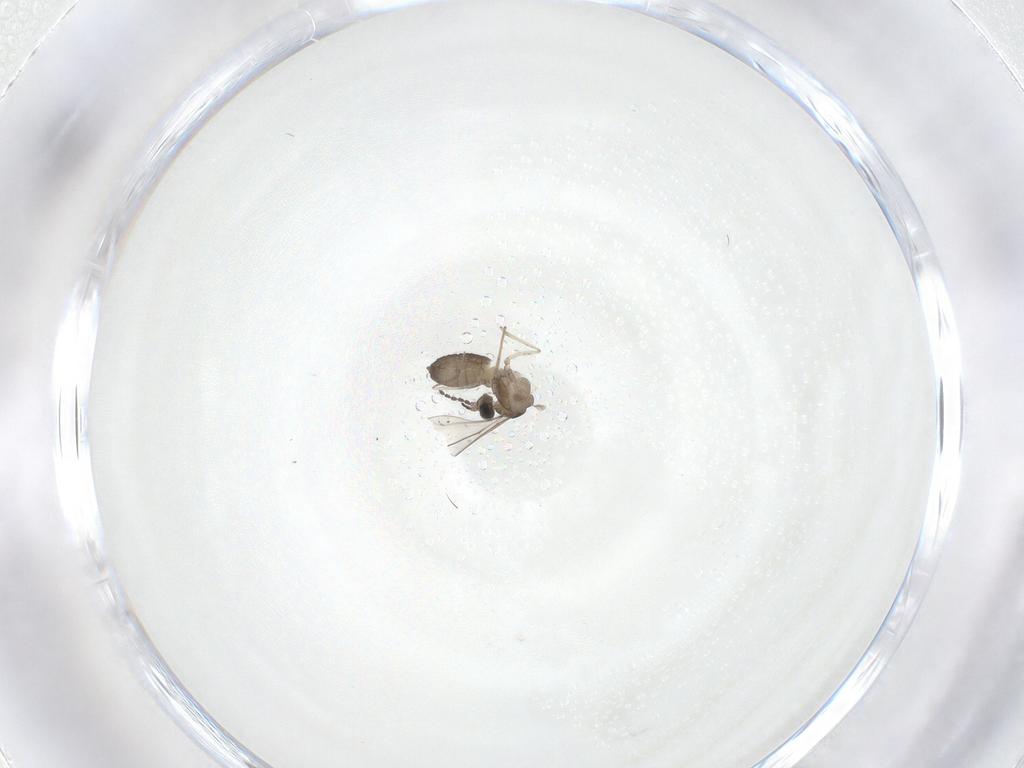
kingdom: Animalia
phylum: Arthropoda
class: Insecta
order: Diptera
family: Cecidomyiidae
